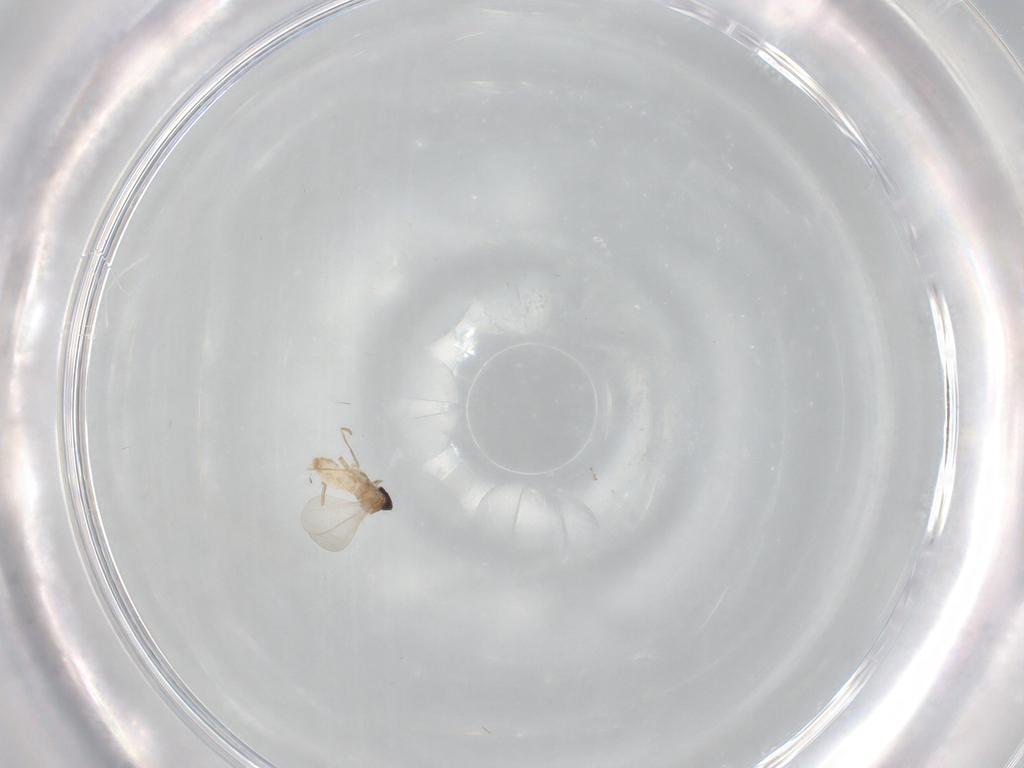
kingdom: Animalia
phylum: Arthropoda
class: Insecta
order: Diptera
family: Cecidomyiidae
